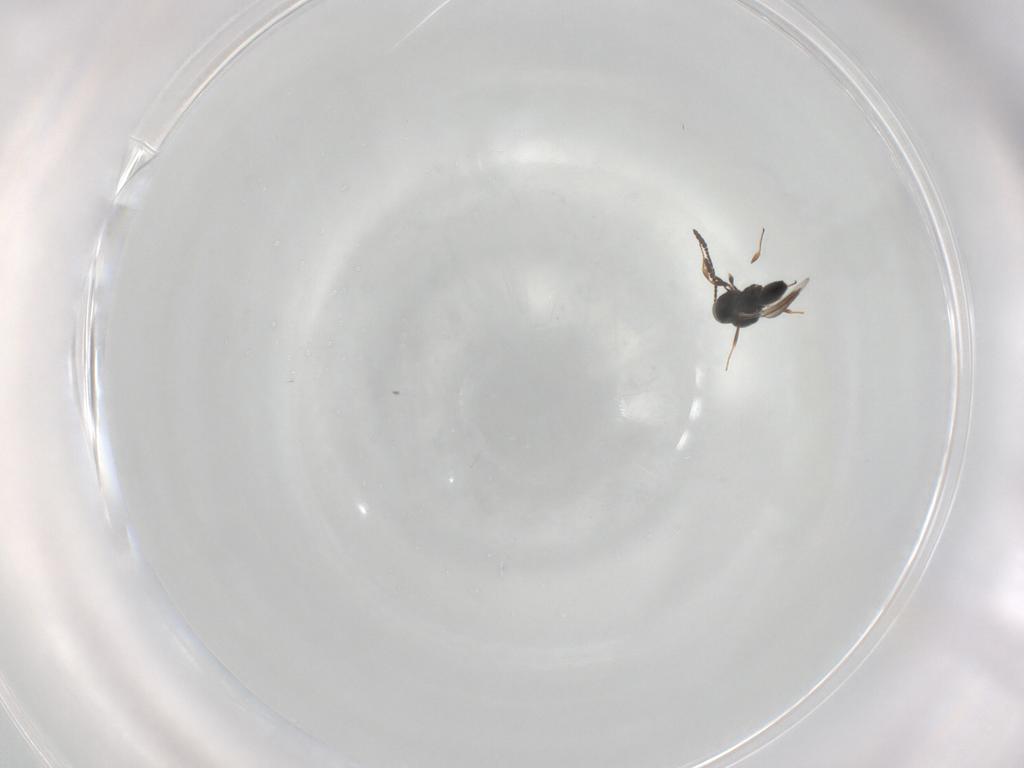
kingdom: Animalia
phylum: Arthropoda
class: Insecta
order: Hymenoptera
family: Scelionidae
